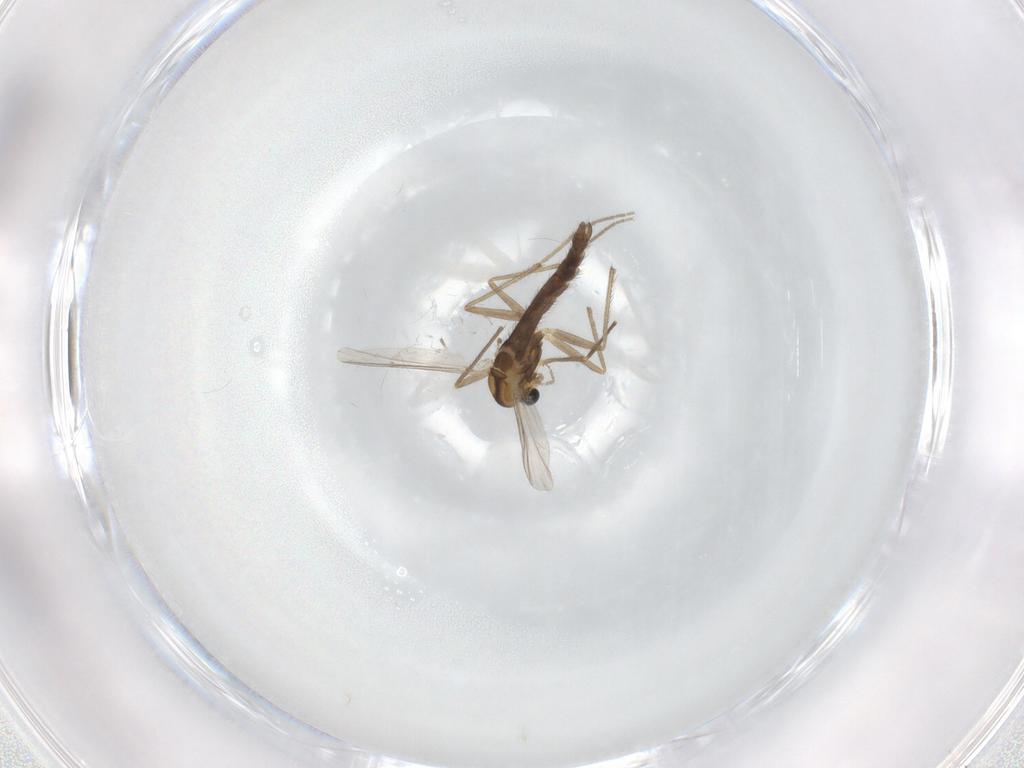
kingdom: Animalia
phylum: Arthropoda
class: Insecta
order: Diptera
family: Chironomidae
